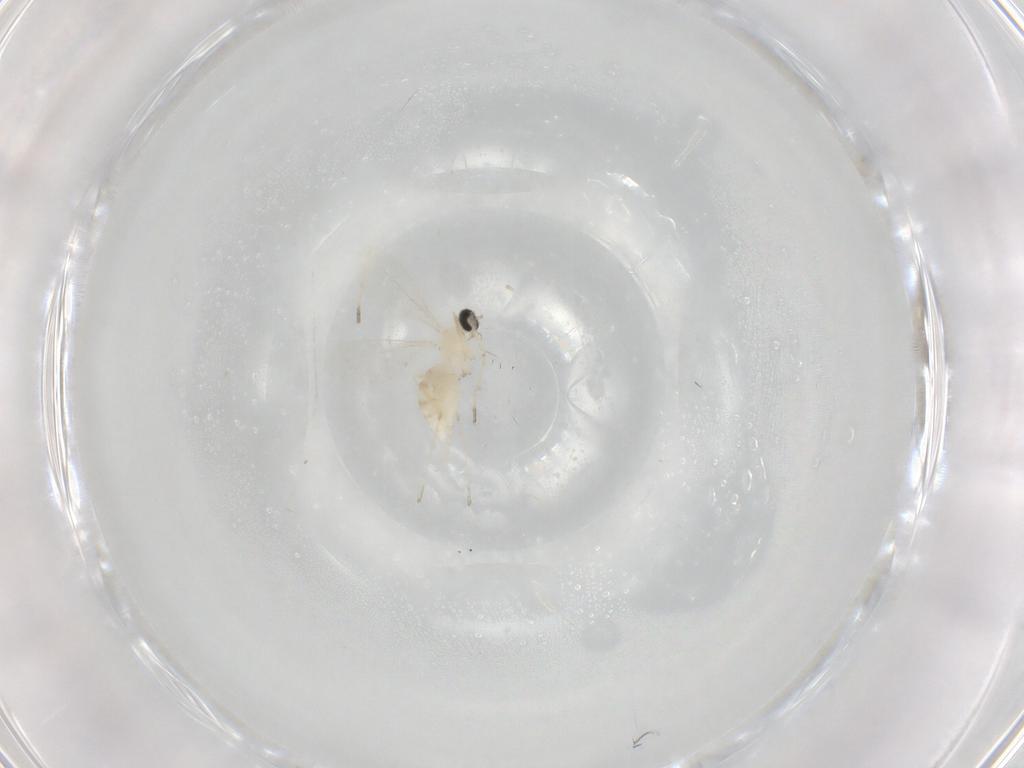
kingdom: Animalia
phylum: Arthropoda
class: Insecta
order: Diptera
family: Cecidomyiidae
